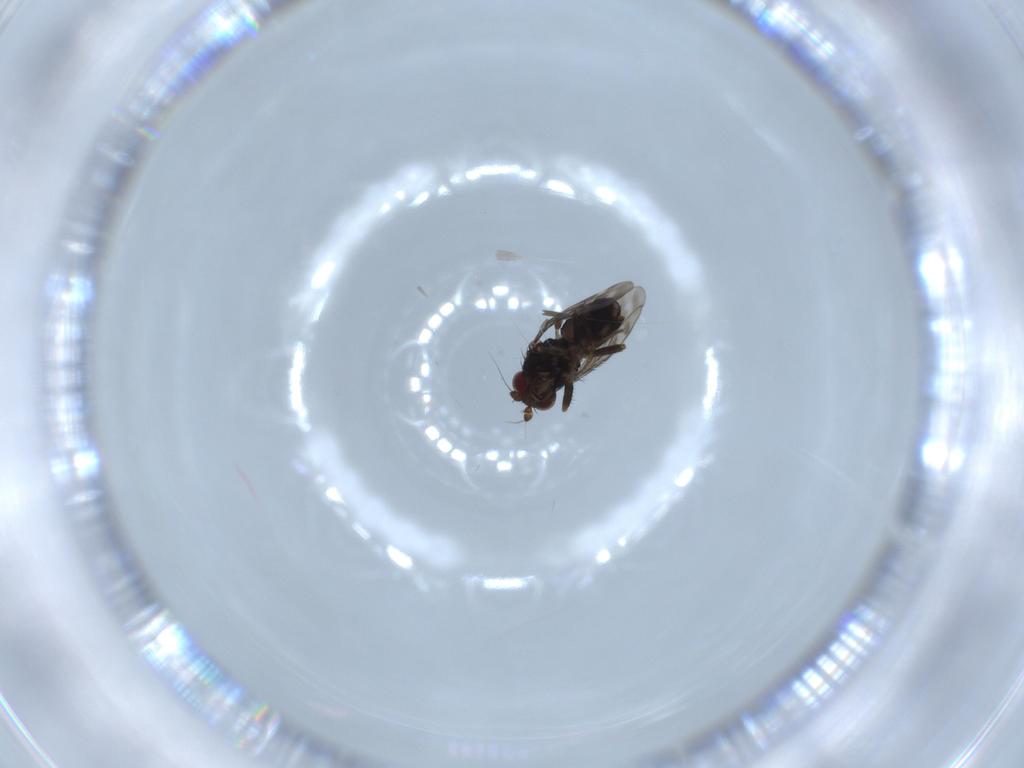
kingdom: Animalia
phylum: Arthropoda
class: Insecta
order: Diptera
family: Sphaeroceridae
